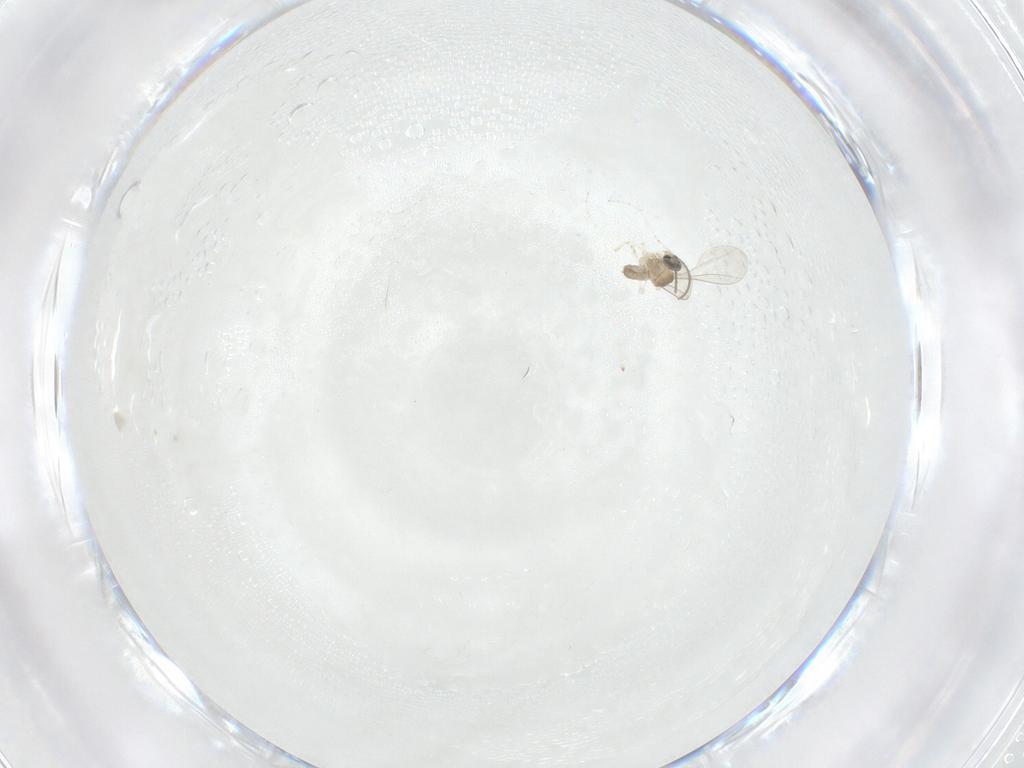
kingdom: Animalia
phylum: Arthropoda
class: Insecta
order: Diptera
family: Cecidomyiidae
